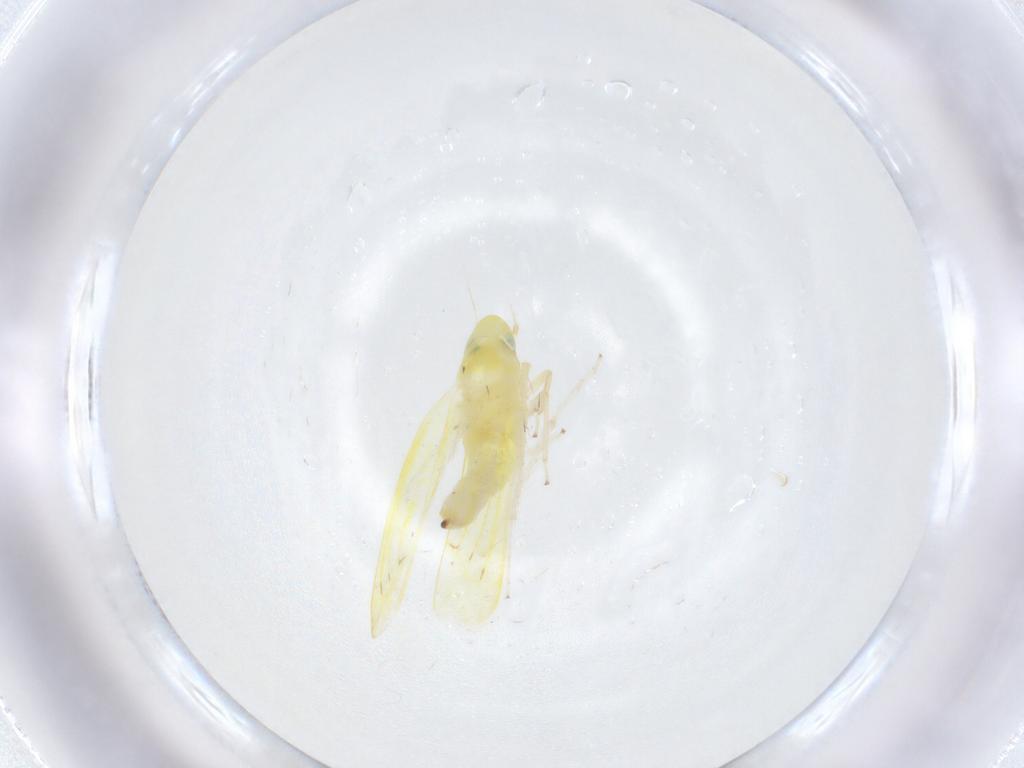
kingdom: Animalia
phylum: Arthropoda
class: Insecta
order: Hemiptera
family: Cicadellidae
